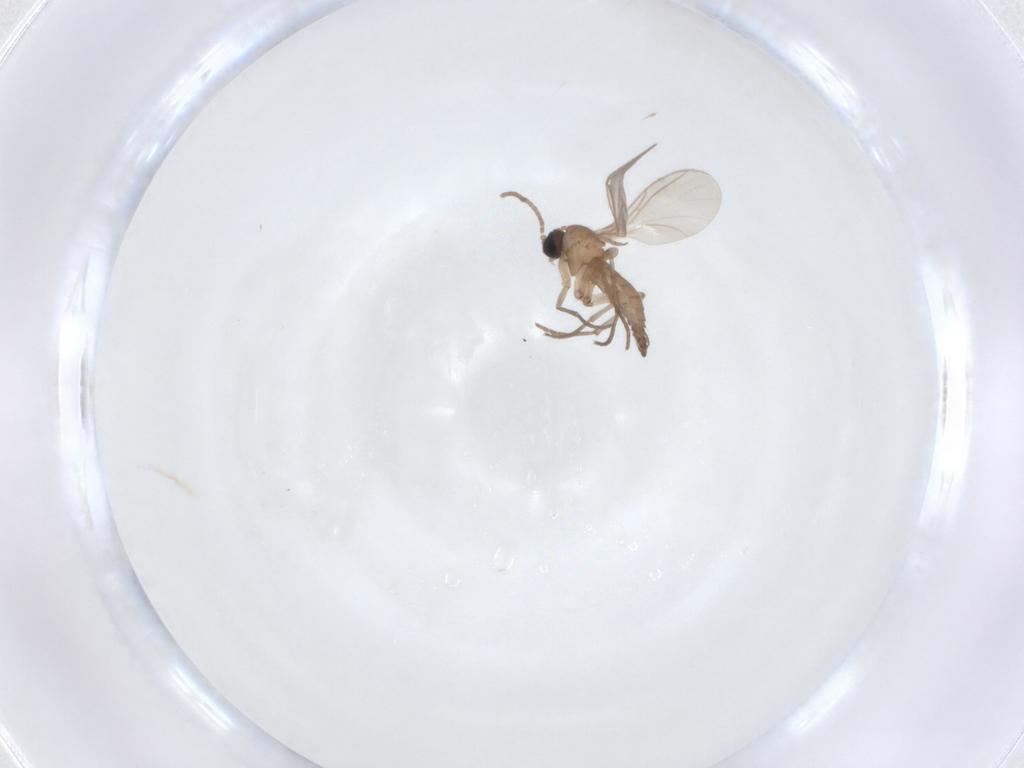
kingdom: Animalia
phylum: Arthropoda
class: Insecta
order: Diptera
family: Sciaridae
